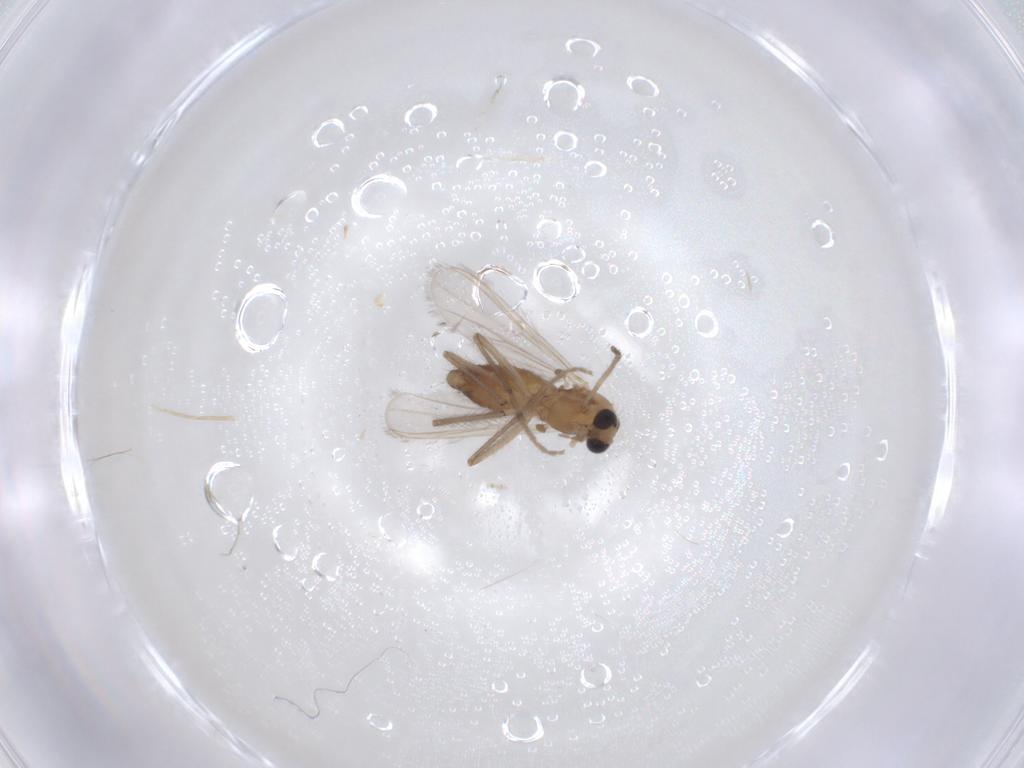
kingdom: Animalia
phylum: Arthropoda
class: Insecta
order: Diptera
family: Chironomidae
